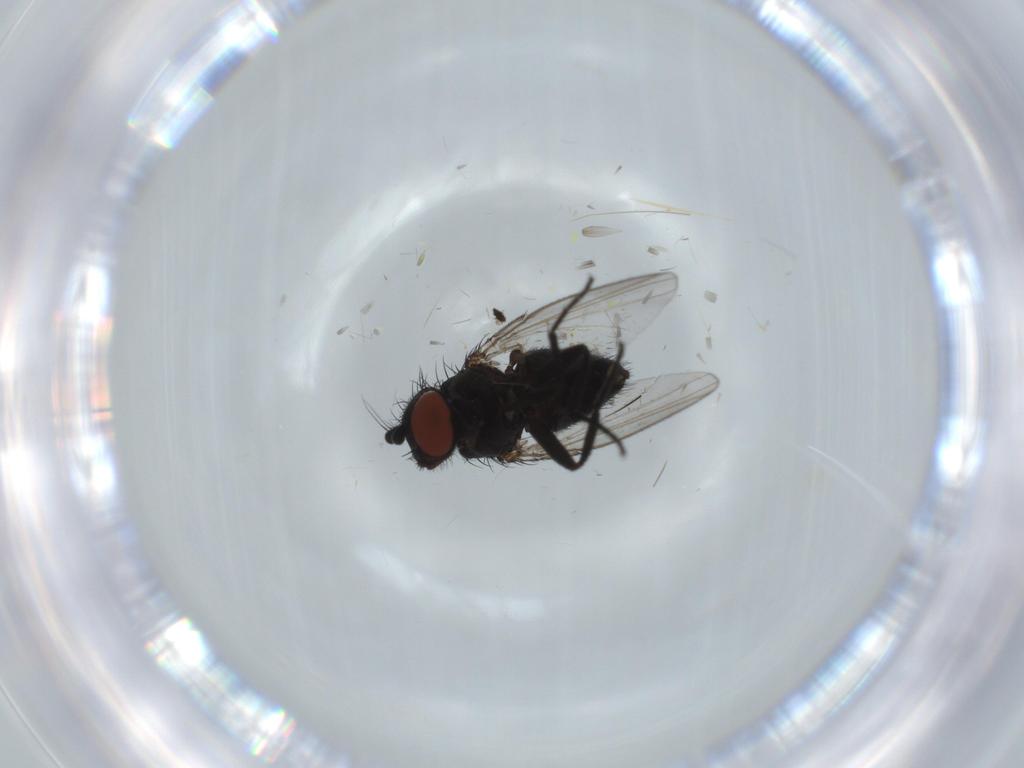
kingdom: Animalia
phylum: Arthropoda
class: Insecta
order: Diptera
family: Milichiidae
